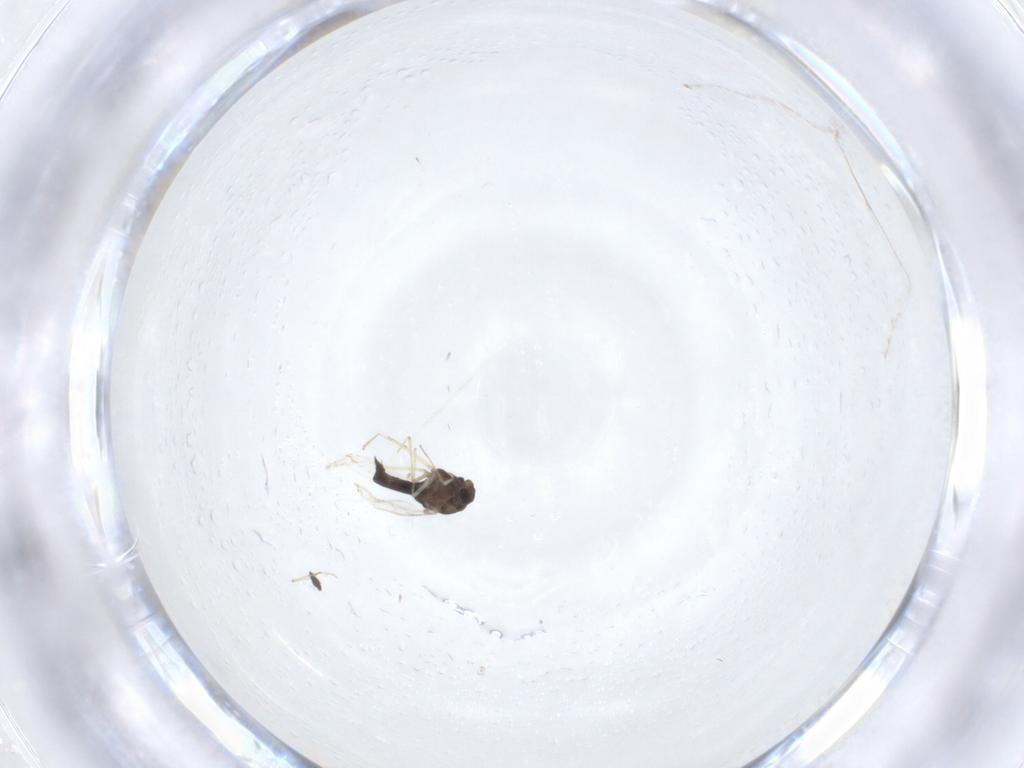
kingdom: Animalia
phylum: Arthropoda
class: Insecta
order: Diptera
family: Chironomidae
